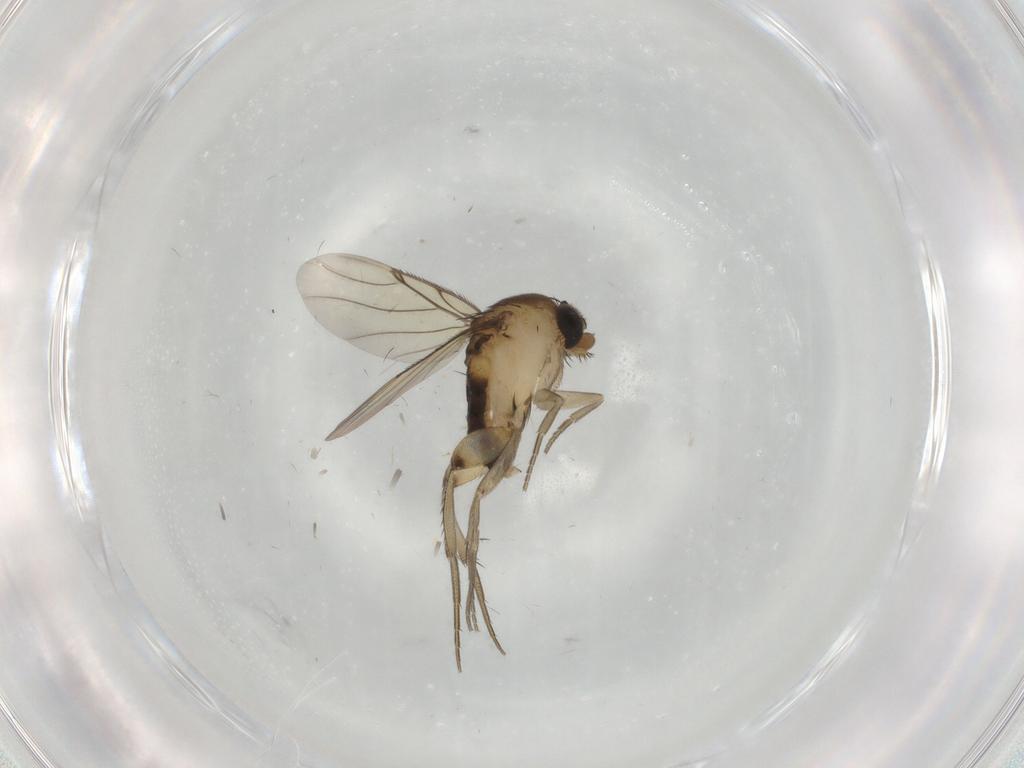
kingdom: Animalia
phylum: Arthropoda
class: Insecta
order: Diptera
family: Phoridae
